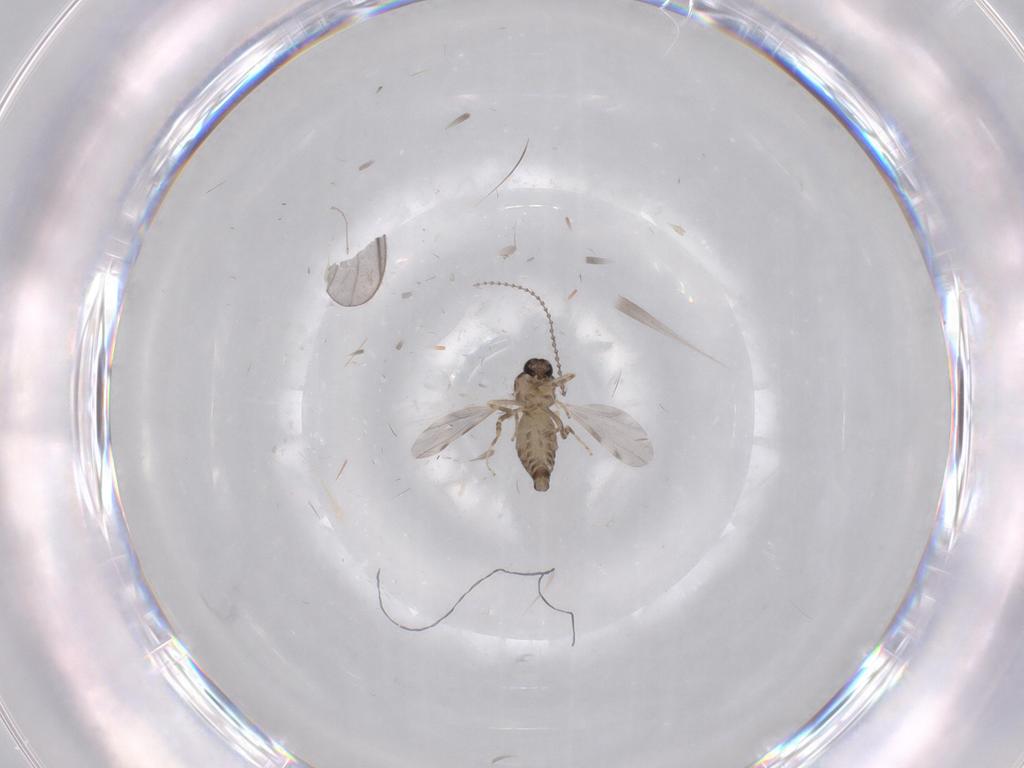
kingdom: Animalia
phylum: Arthropoda
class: Insecta
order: Diptera
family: Ceratopogonidae
